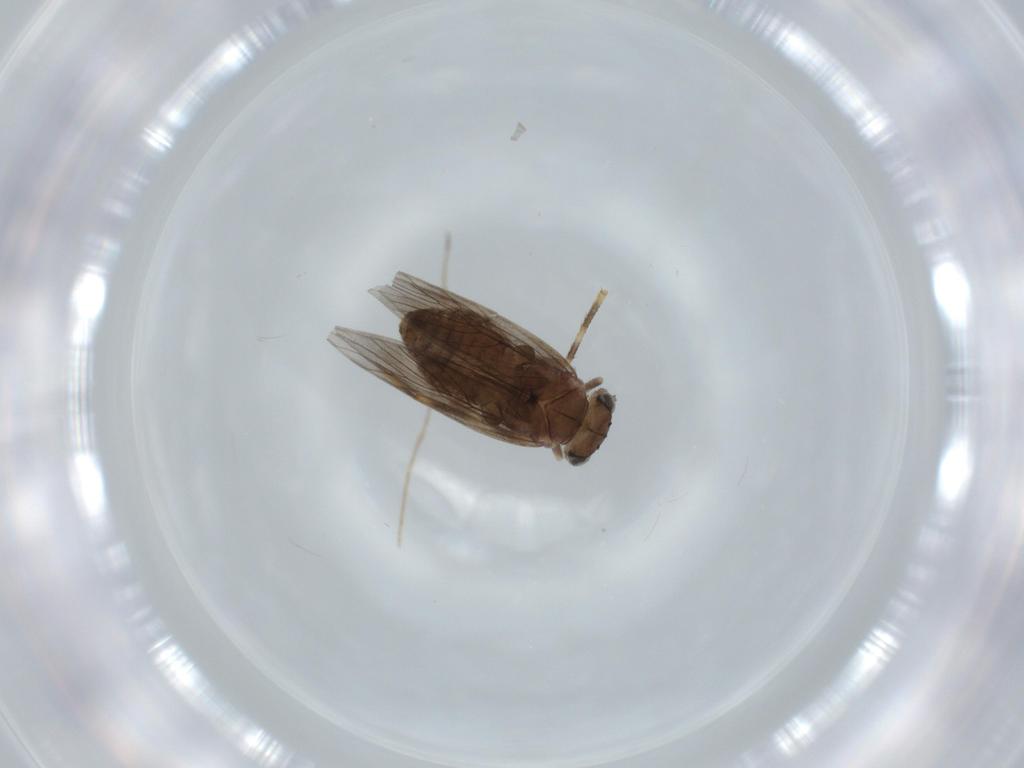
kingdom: Animalia
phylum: Arthropoda
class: Insecta
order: Psocodea
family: Lepidopsocidae
